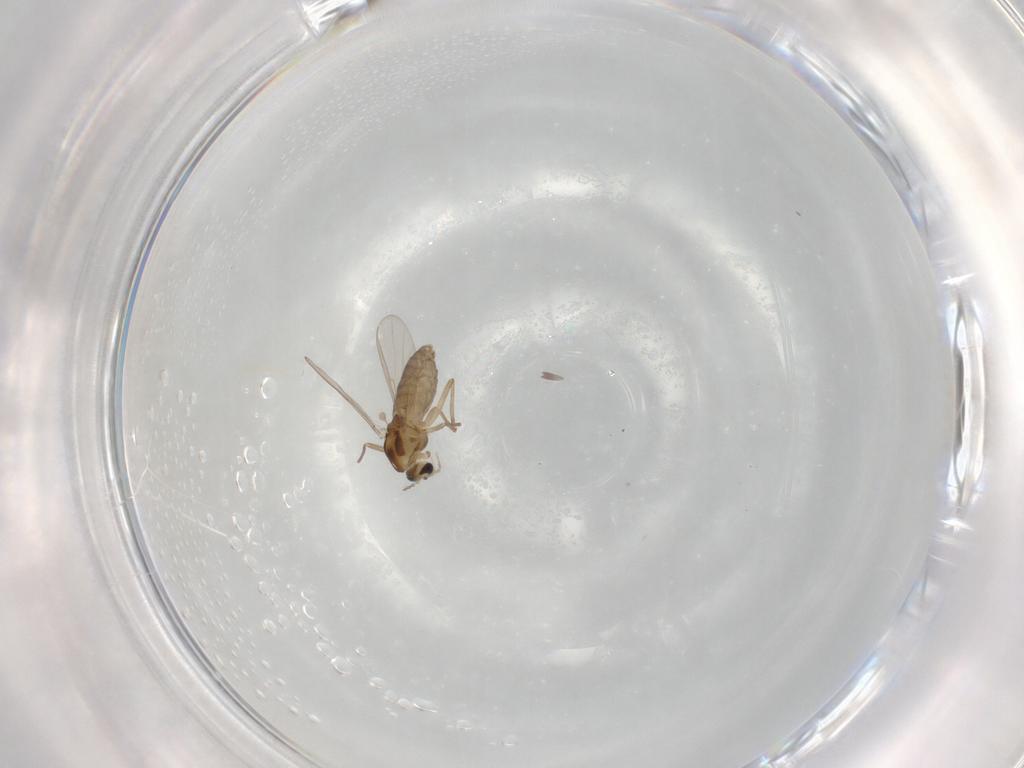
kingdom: Animalia
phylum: Arthropoda
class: Insecta
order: Diptera
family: Chironomidae
